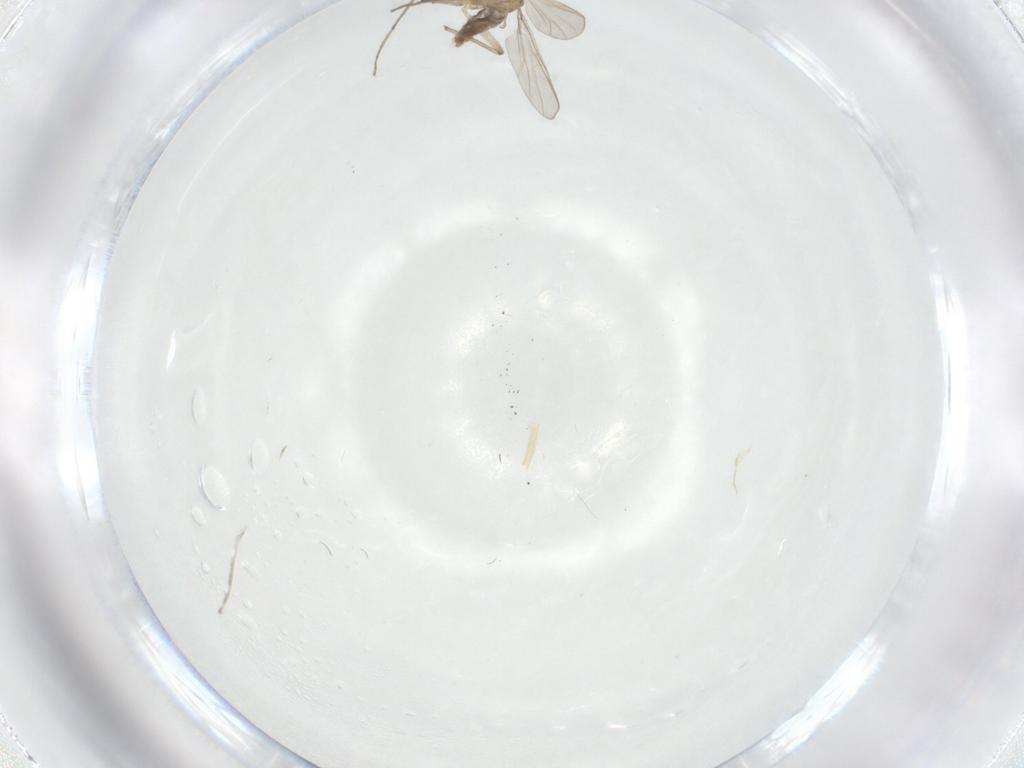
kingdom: Animalia
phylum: Arthropoda
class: Insecta
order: Diptera
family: Chironomidae
